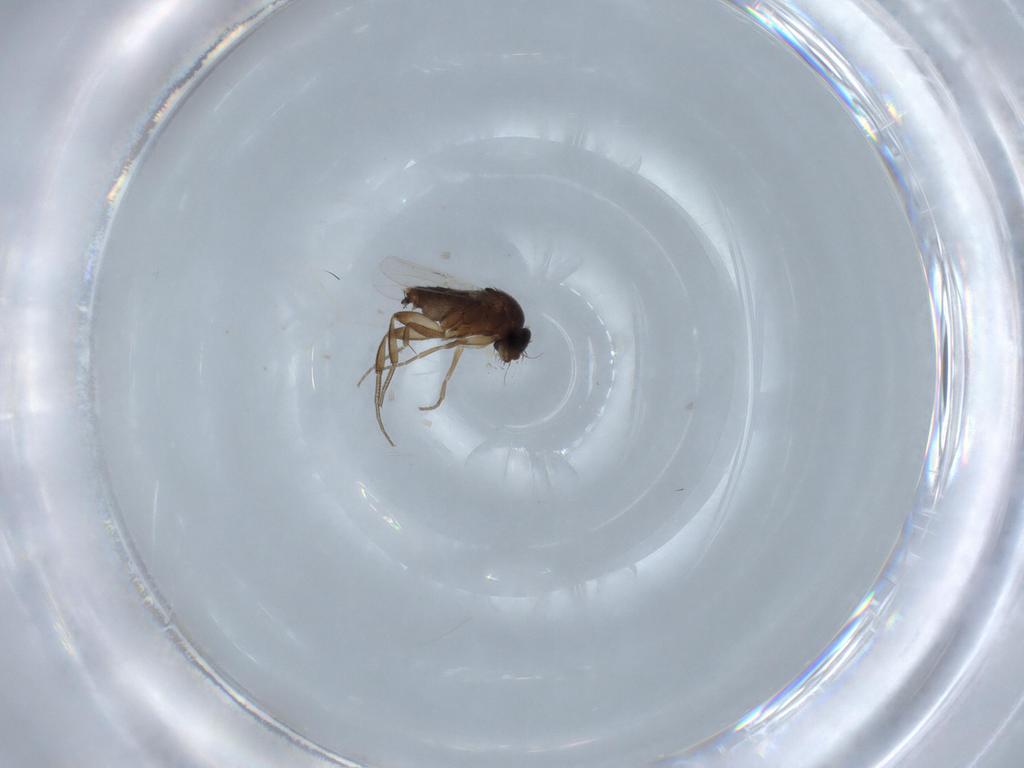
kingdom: Animalia
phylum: Arthropoda
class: Insecta
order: Diptera
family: Phoridae
